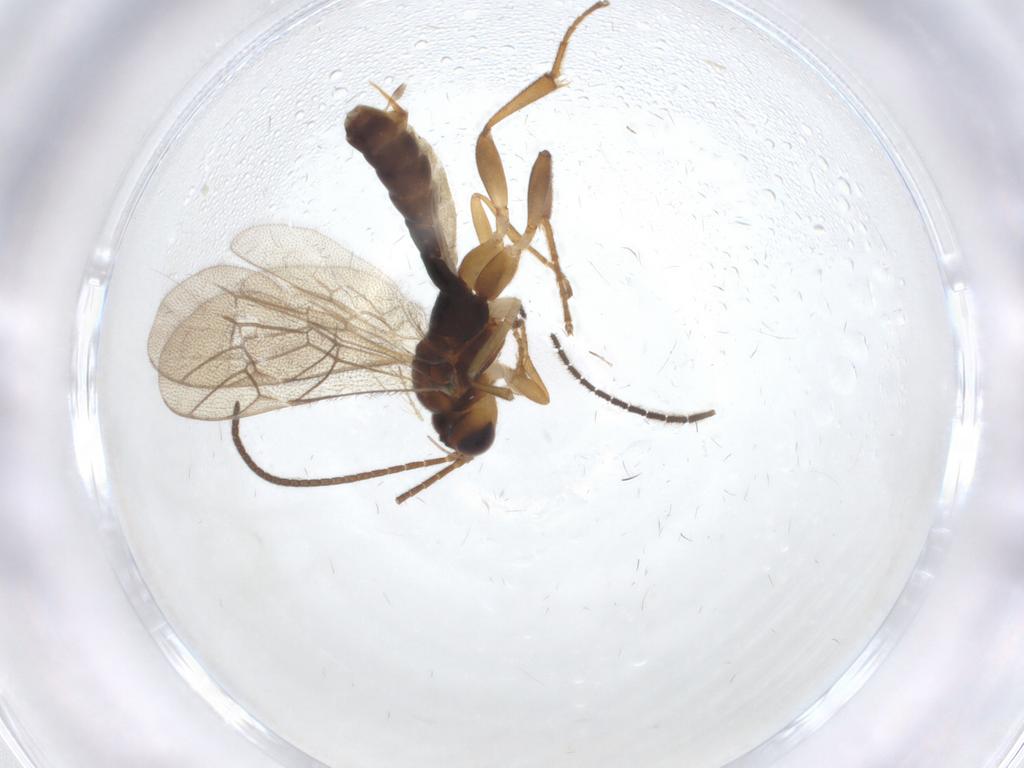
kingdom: Animalia
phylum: Arthropoda
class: Insecta
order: Hymenoptera
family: Ichneumonidae
